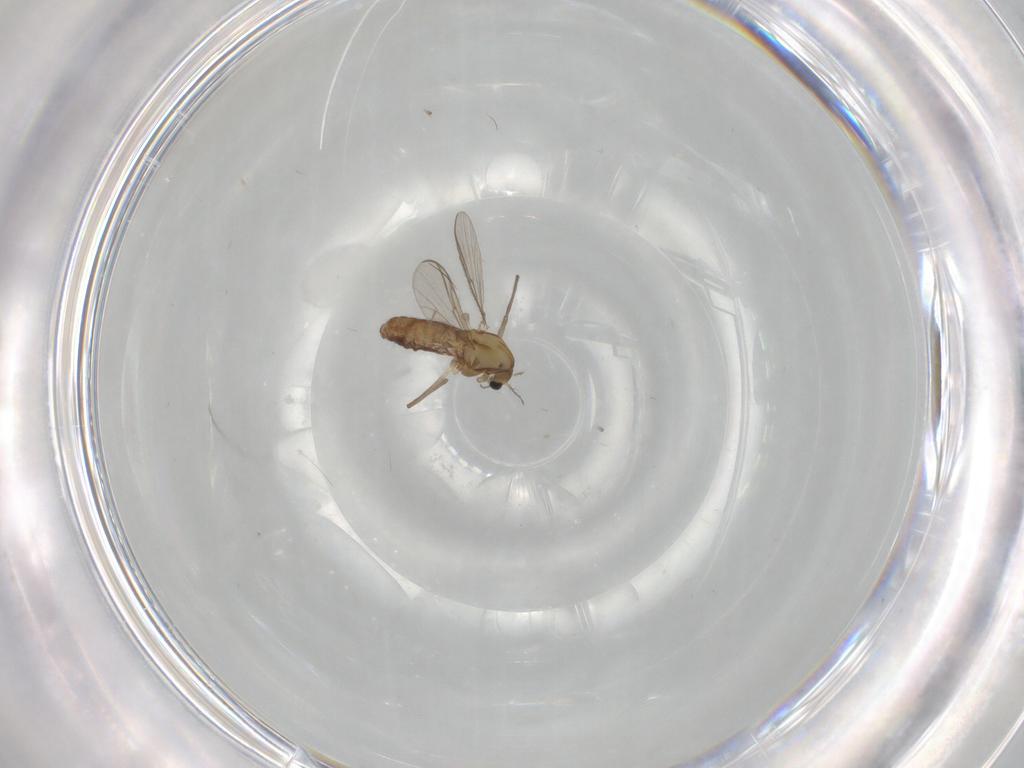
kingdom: Animalia
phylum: Arthropoda
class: Insecta
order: Diptera
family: Chironomidae
